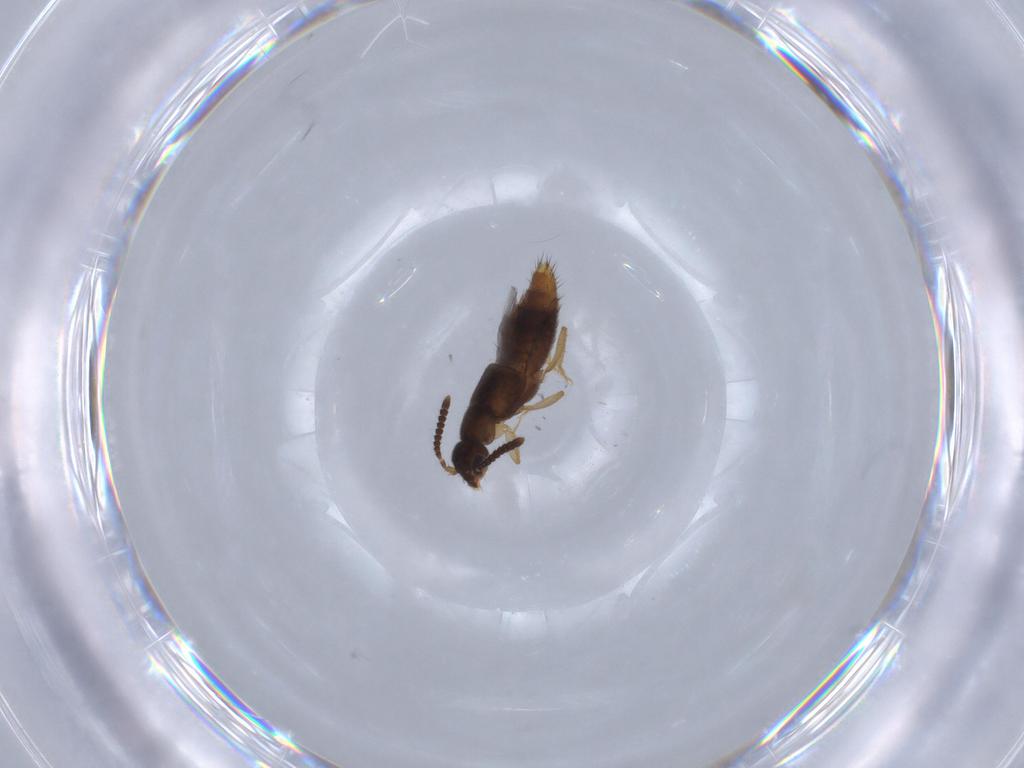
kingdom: Animalia
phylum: Arthropoda
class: Insecta
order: Coleoptera
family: Staphylinidae
